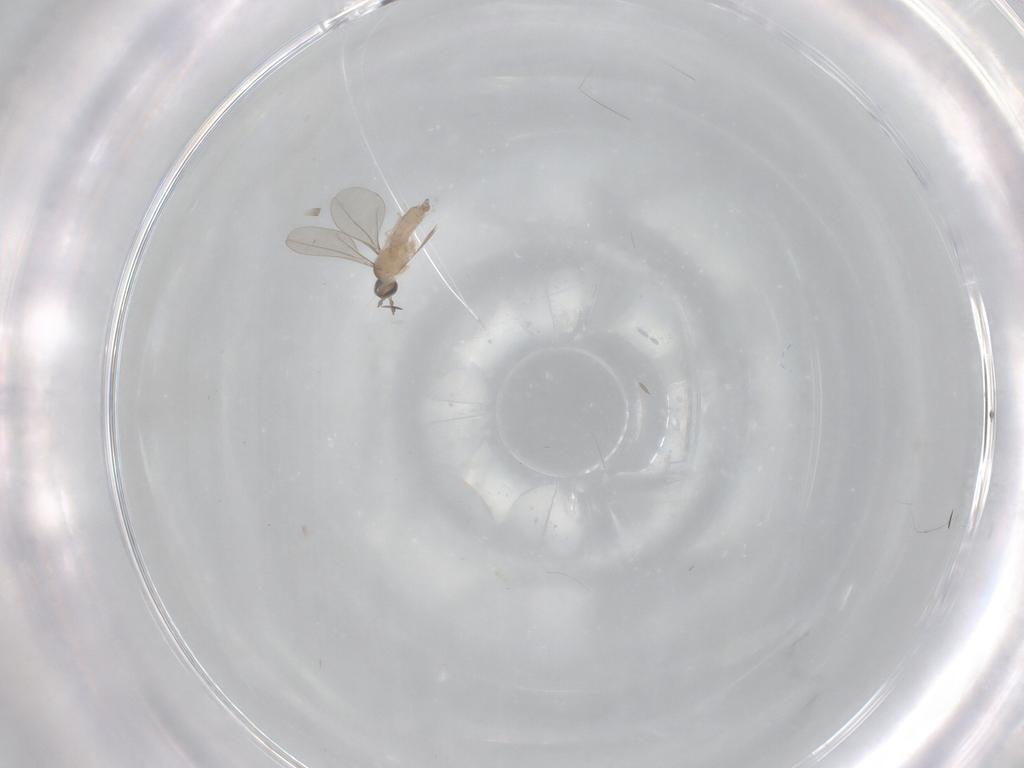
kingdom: Animalia
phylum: Arthropoda
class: Insecta
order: Diptera
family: Cecidomyiidae
